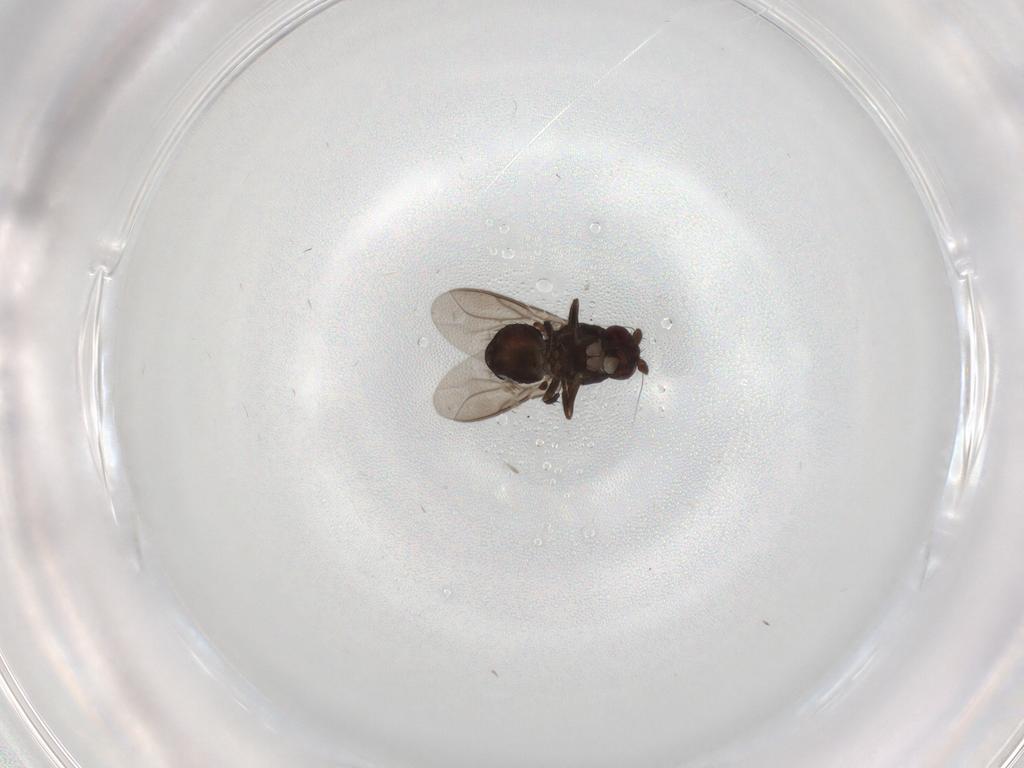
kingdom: Animalia
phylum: Arthropoda
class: Insecta
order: Diptera
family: Sphaeroceridae
